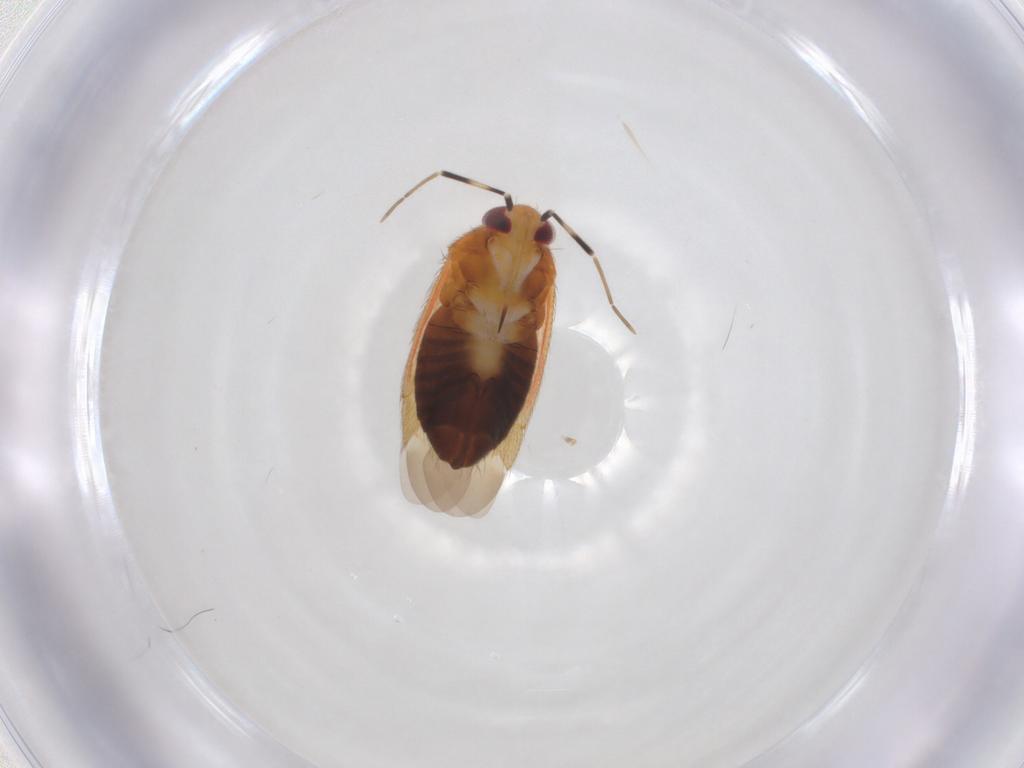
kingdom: Animalia
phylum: Arthropoda
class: Insecta
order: Hemiptera
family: Miridae
